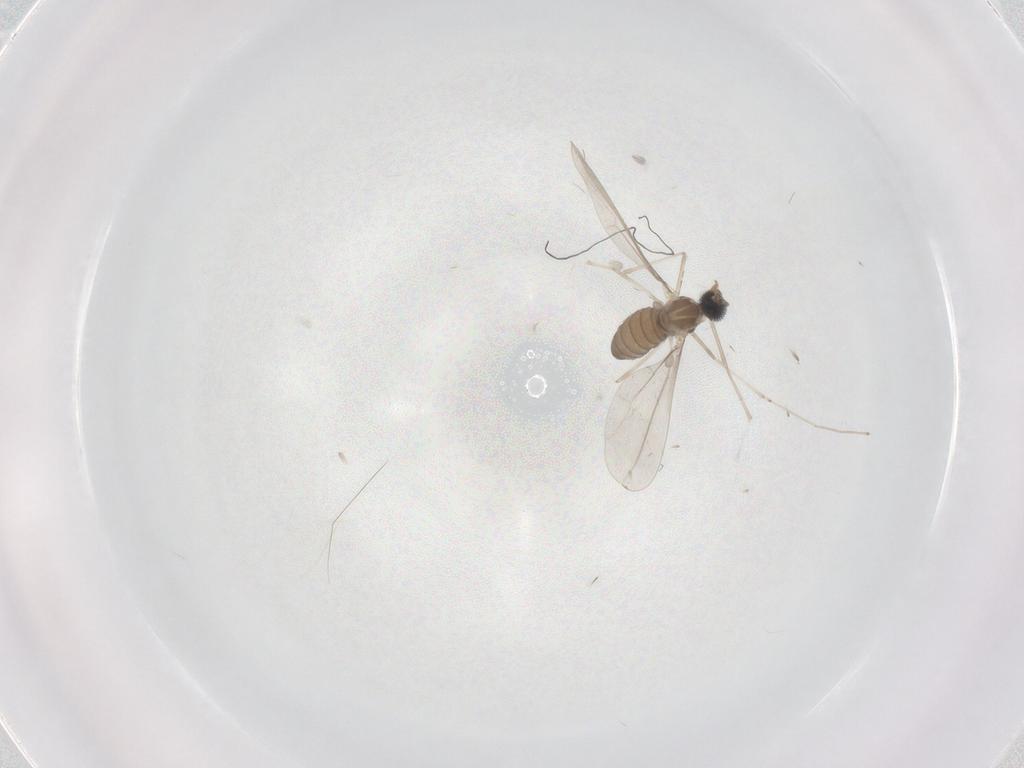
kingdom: Animalia
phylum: Arthropoda
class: Insecta
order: Diptera
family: Cecidomyiidae
